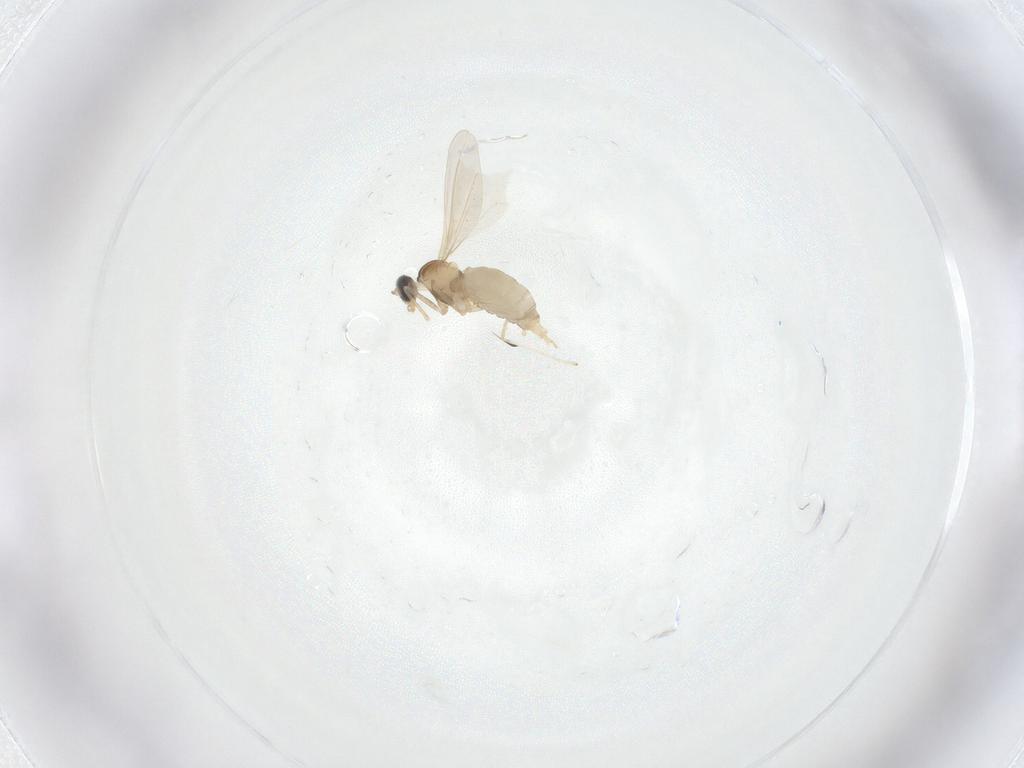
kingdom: Animalia
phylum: Arthropoda
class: Insecta
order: Diptera
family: Cecidomyiidae
